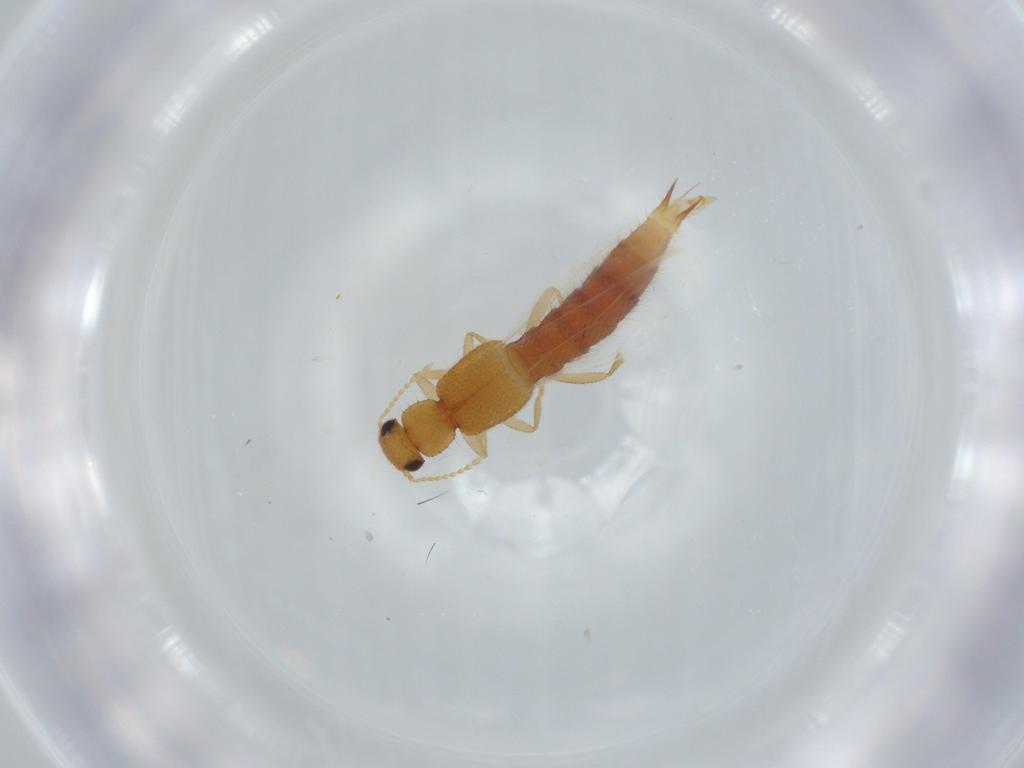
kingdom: Animalia
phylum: Arthropoda
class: Insecta
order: Coleoptera
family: Staphylinidae
